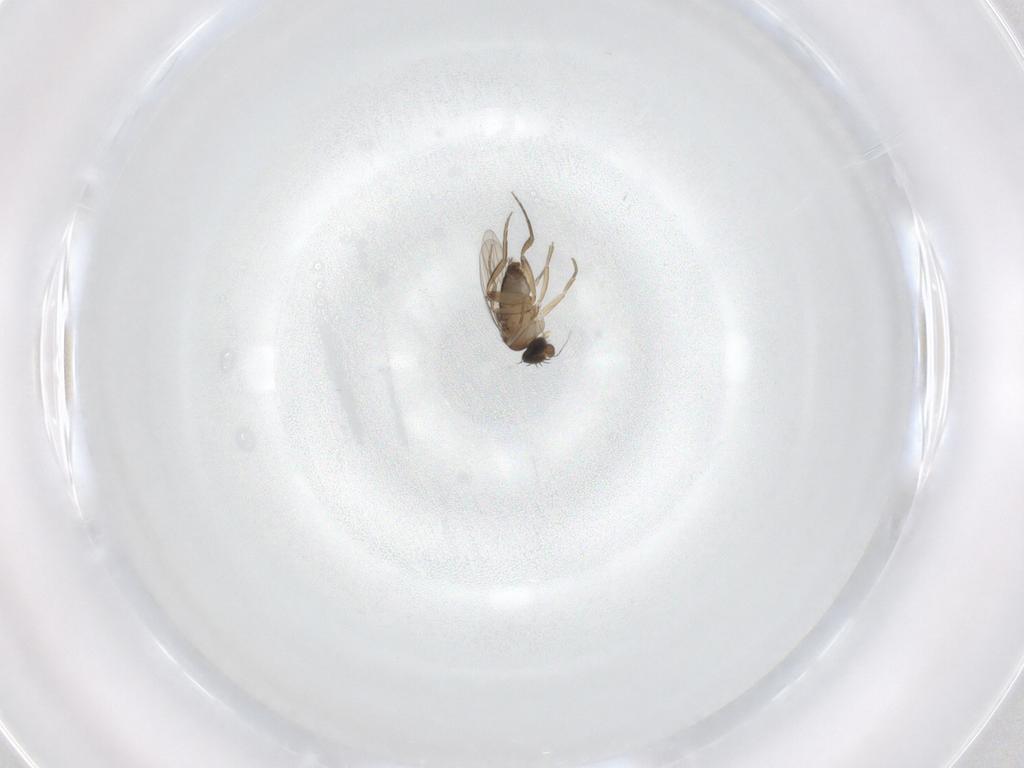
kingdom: Animalia
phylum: Arthropoda
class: Insecta
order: Diptera
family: Cecidomyiidae
